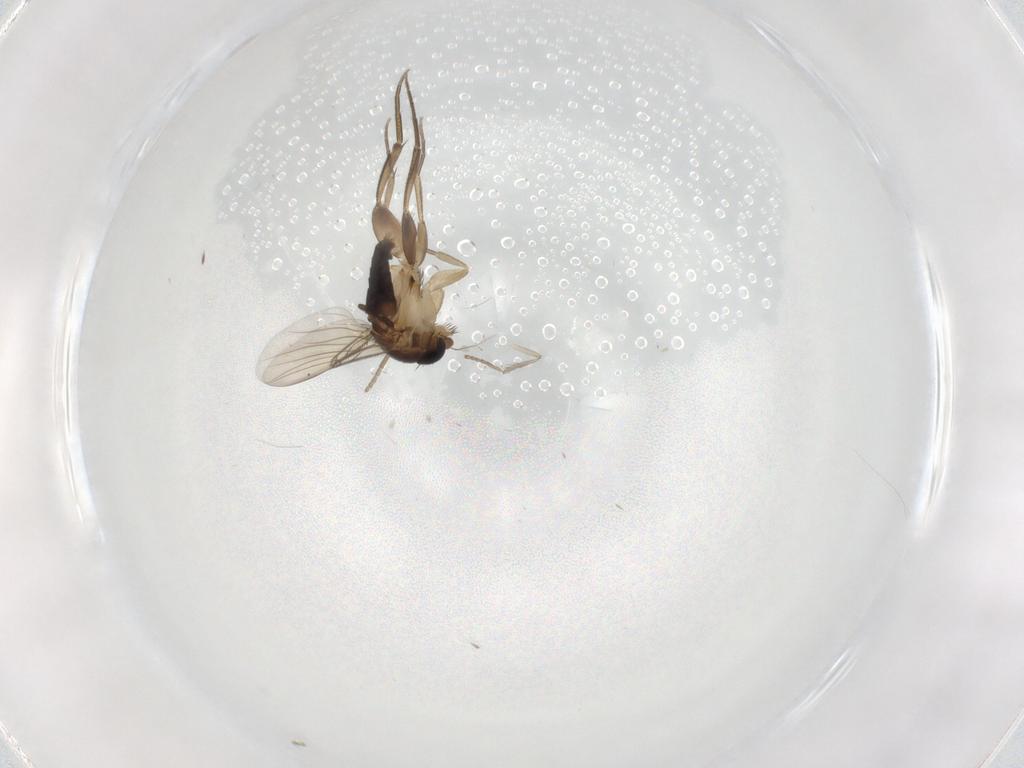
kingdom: Animalia
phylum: Arthropoda
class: Insecta
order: Diptera
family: Phoridae
